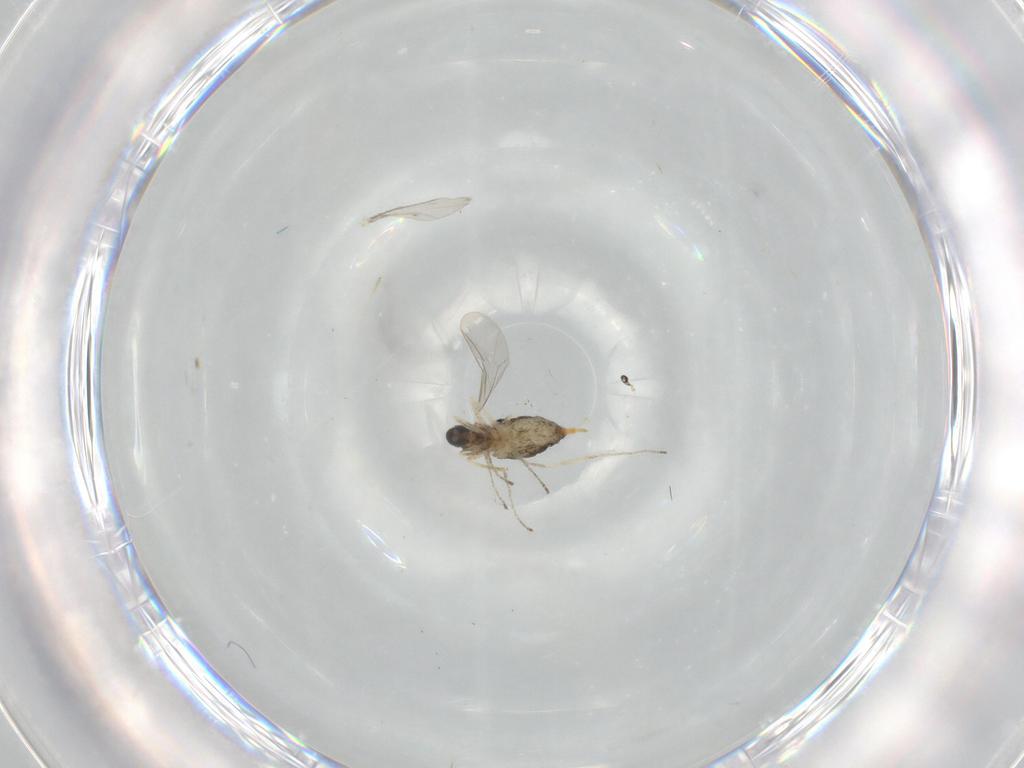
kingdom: Animalia
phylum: Arthropoda
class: Insecta
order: Diptera
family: Cecidomyiidae
